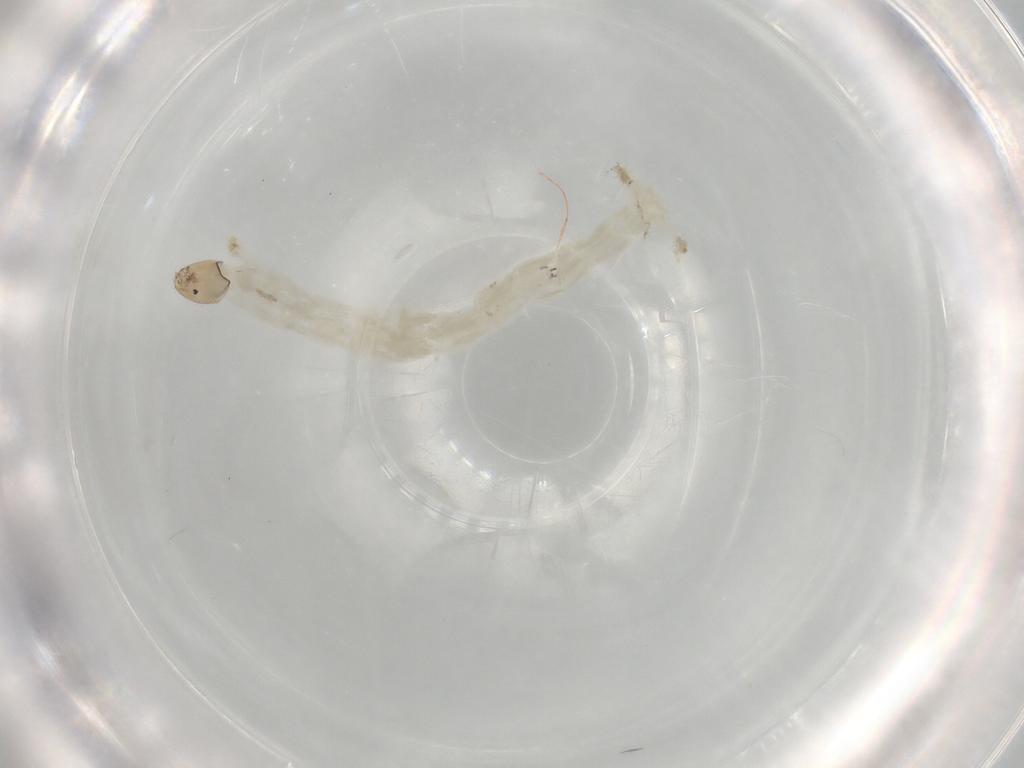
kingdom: Animalia
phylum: Arthropoda
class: Insecta
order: Diptera
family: Chironomidae
